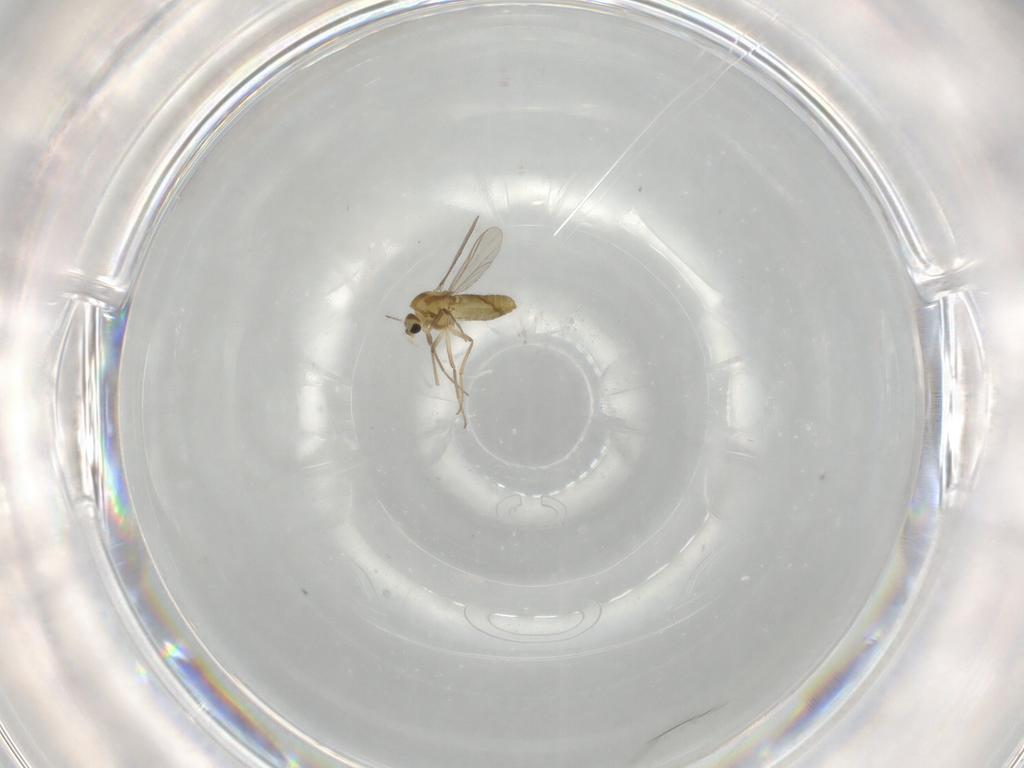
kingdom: Animalia
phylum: Arthropoda
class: Insecta
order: Diptera
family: Chironomidae
